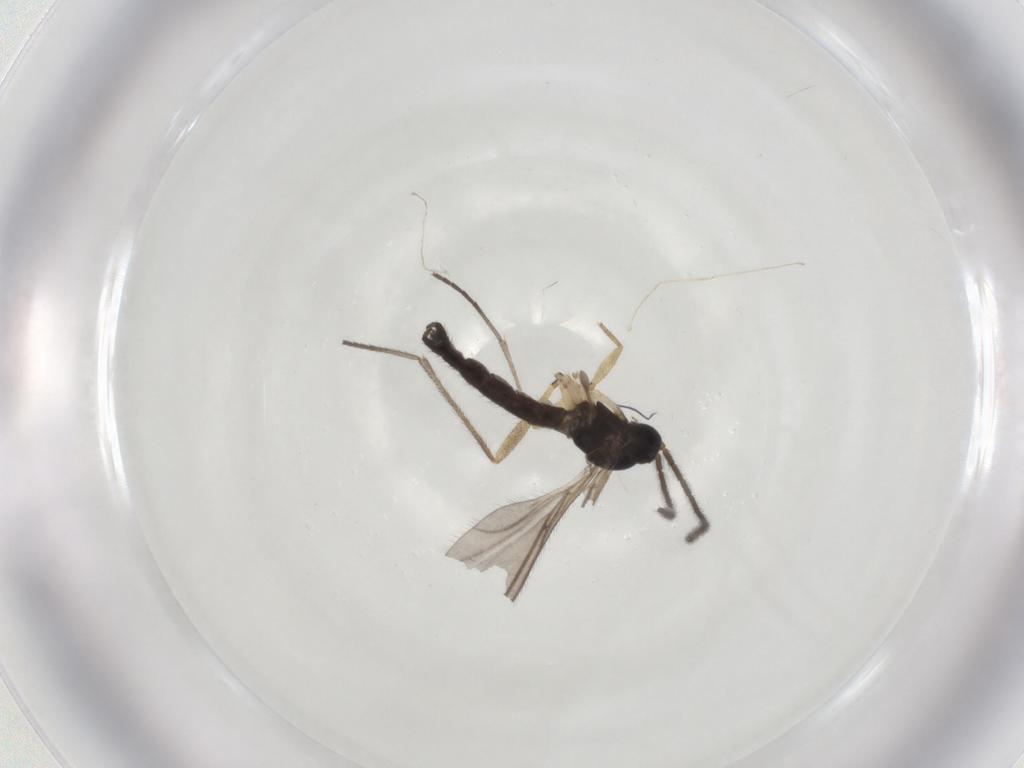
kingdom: Animalia
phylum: Arthropoda
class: Insecta
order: Diptera
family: Sciaridae
